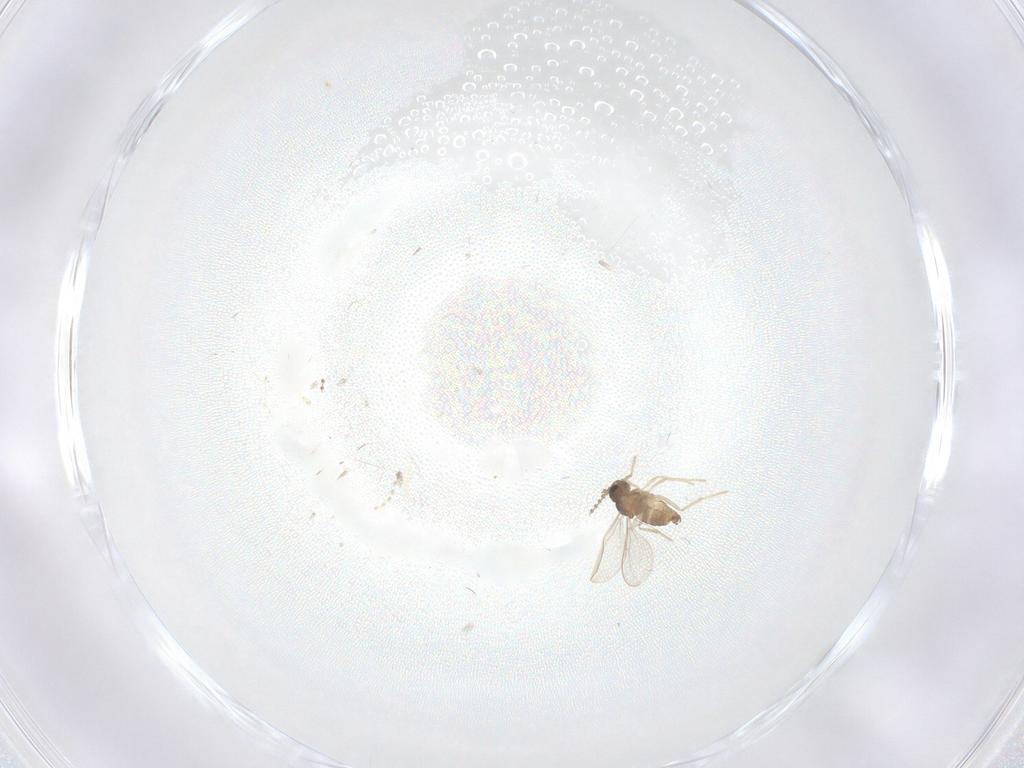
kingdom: Animalia
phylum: Arthropoda
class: Insecta
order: Diptera
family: Cecidomyiidae
